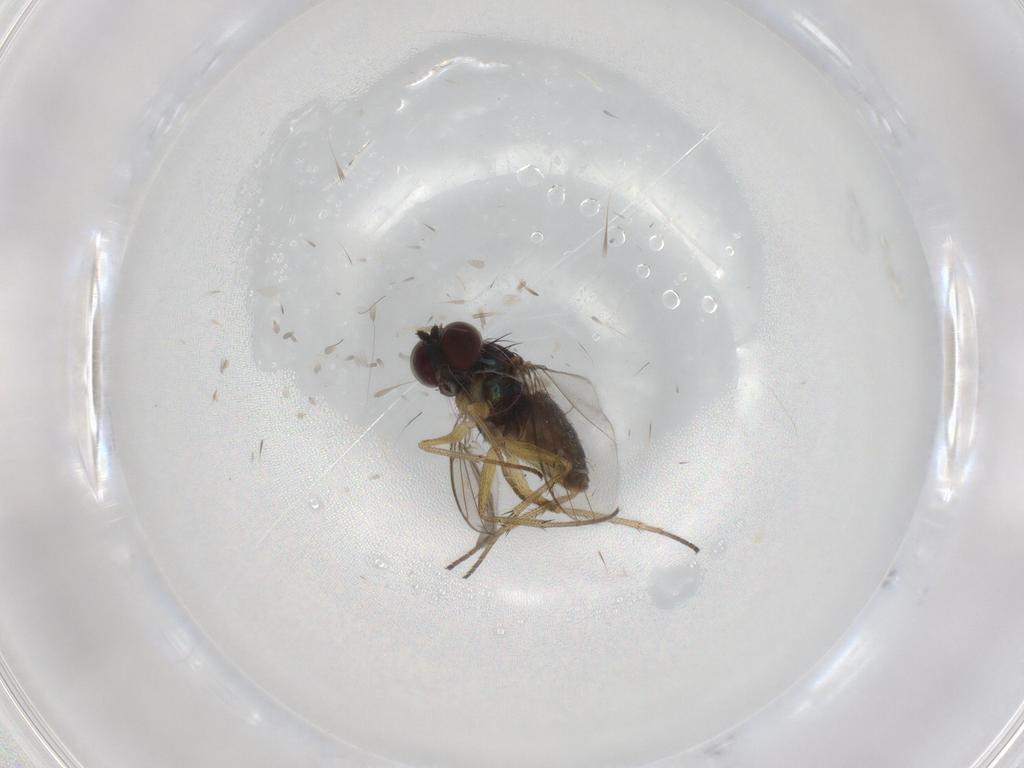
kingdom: Animalia
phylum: Arthropoda
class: Insecta
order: Diptera
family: Dolichopodidae
